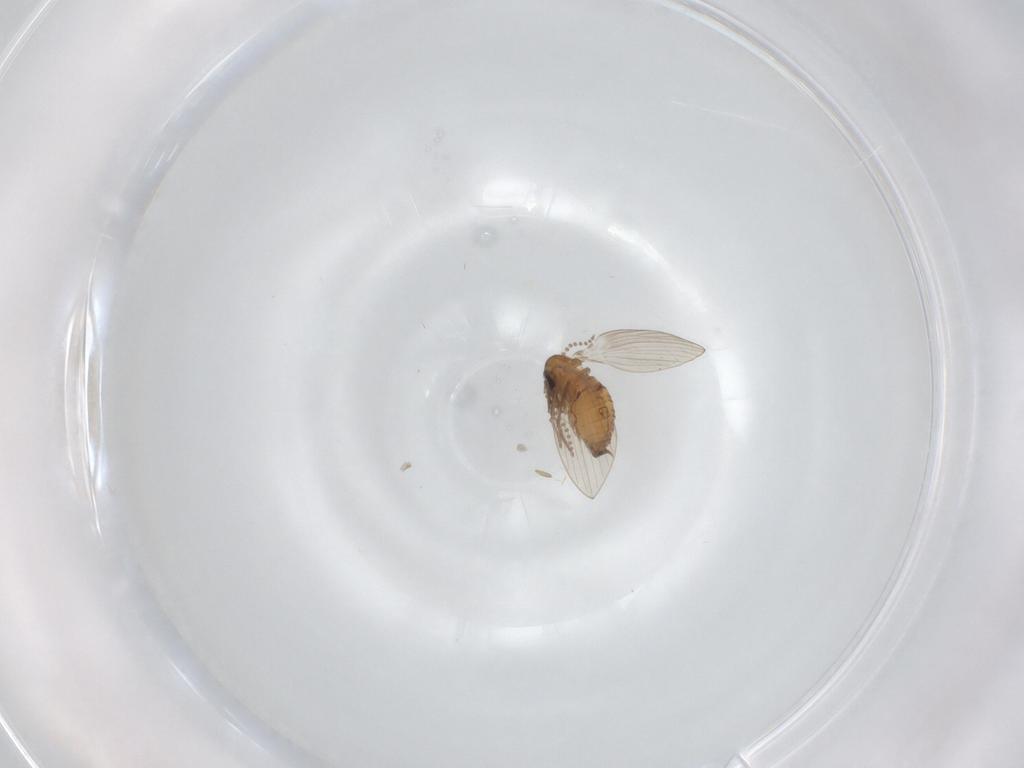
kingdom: Animalia
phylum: Arthropoda
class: Insecta
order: Diptera
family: Psychodidae
